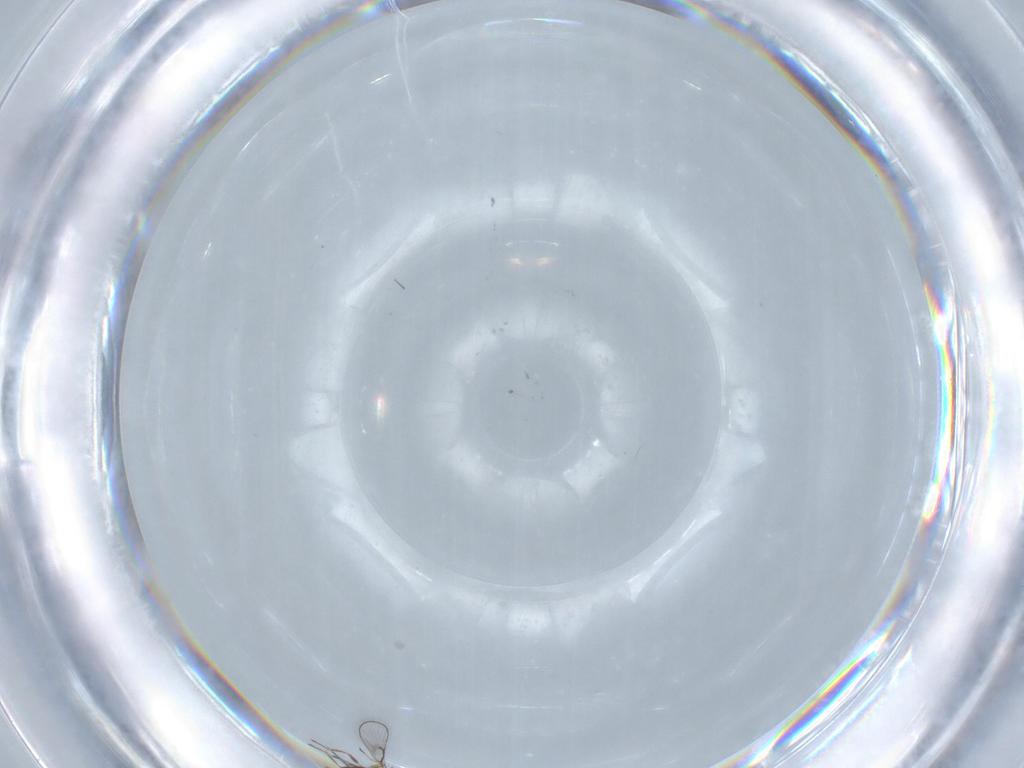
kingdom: Animalia
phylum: Arthropoda
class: Insecta
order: Hymenoptera
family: Trichogrammatidae
